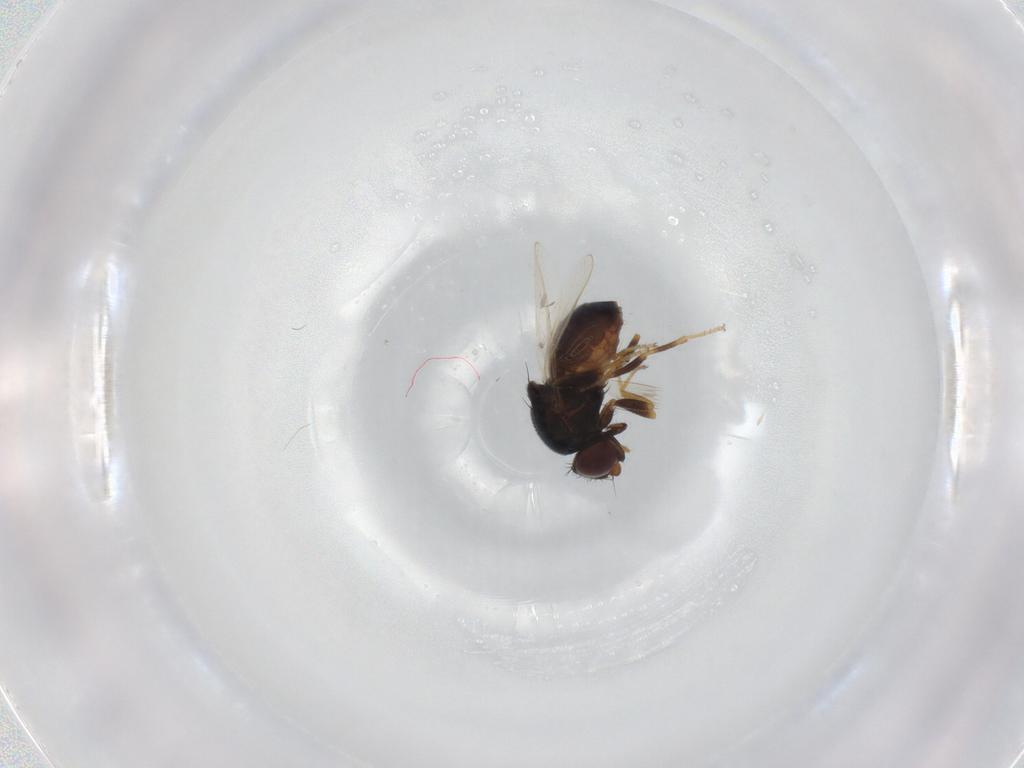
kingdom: Animalia
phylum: Arthropoda
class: Insecta
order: Diptera
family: Chloropidae
